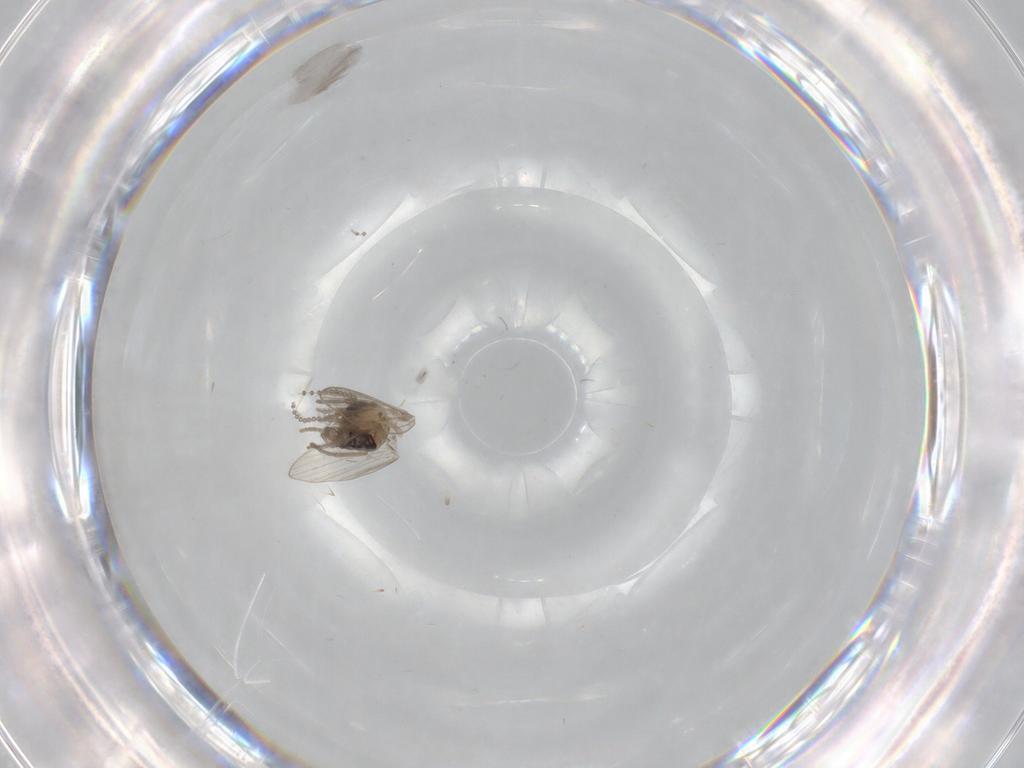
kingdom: Animalia
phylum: Arthropoda
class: Insecta
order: Diptera
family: Psychodidae
